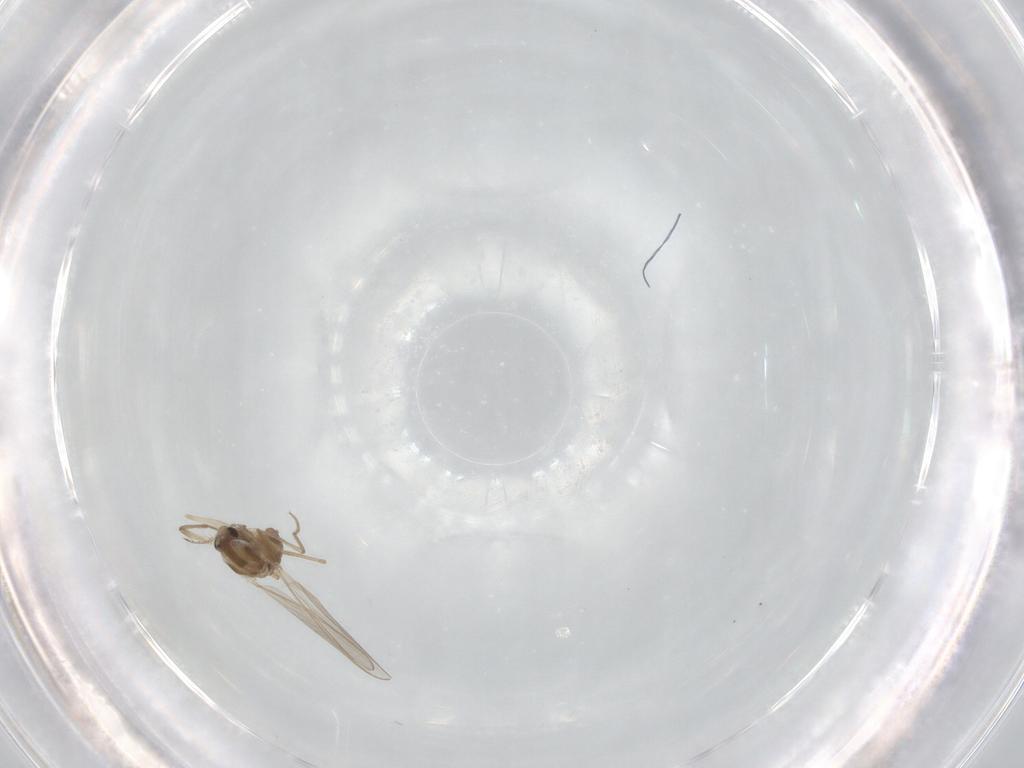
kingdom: Animalia
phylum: Arthropoda
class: Insecta
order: Diptera
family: Chironomidae
